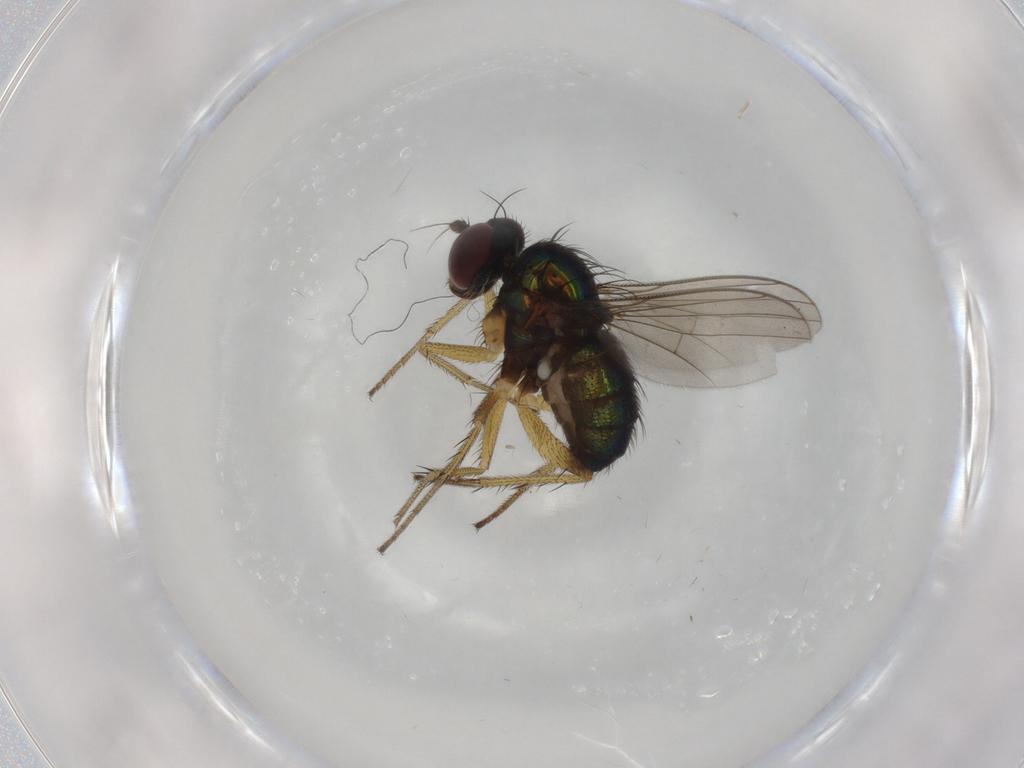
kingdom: Animalia
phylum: Arthropoda
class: Insecta
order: Diptera
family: Dolichopodidae
